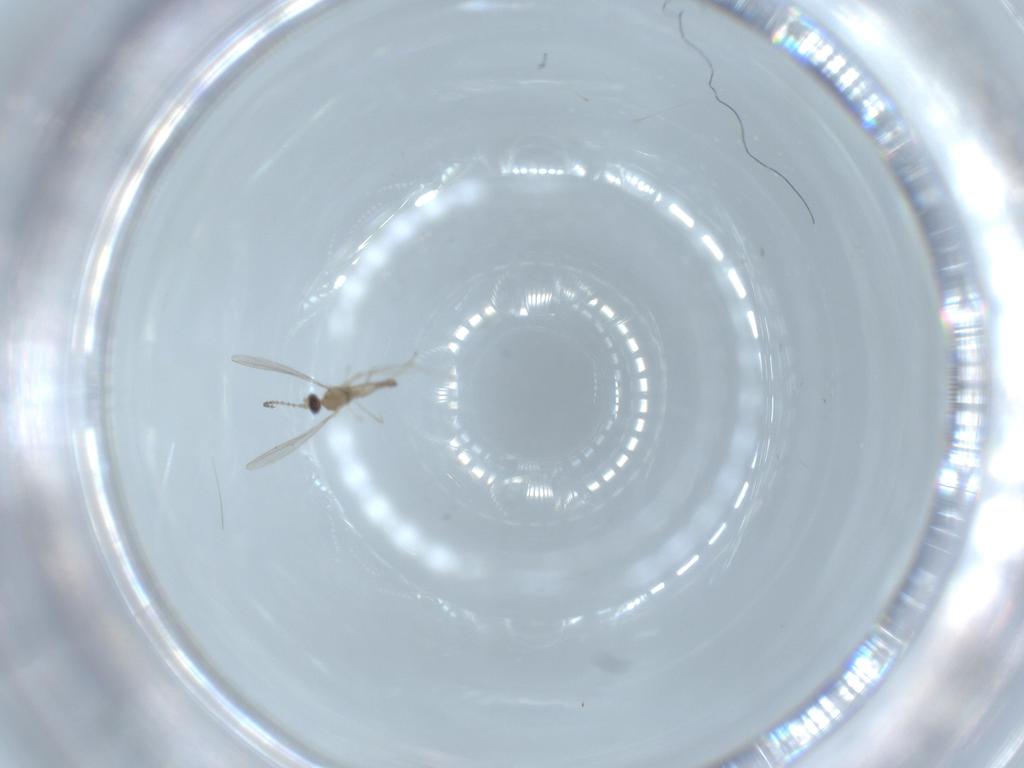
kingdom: Animalia
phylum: Arthropoda
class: Insecta
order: Diptera
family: Cecidomyiidae
